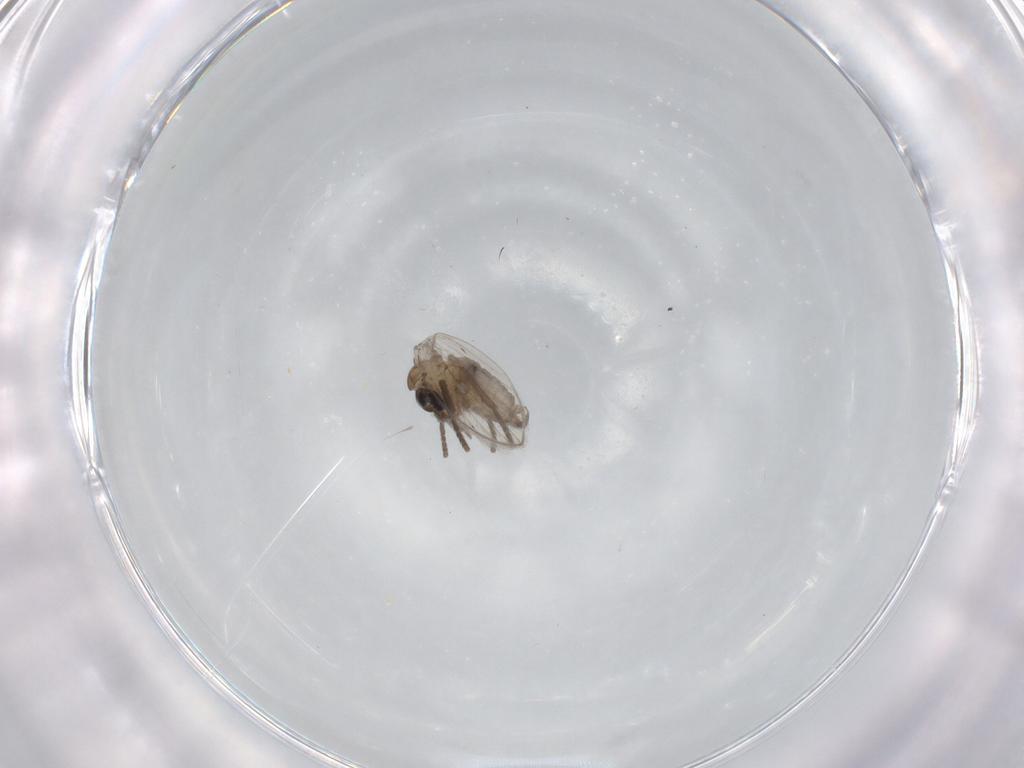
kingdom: Animalia
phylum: Arthropoda
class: Insecta
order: Diptera
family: Psychodidae
